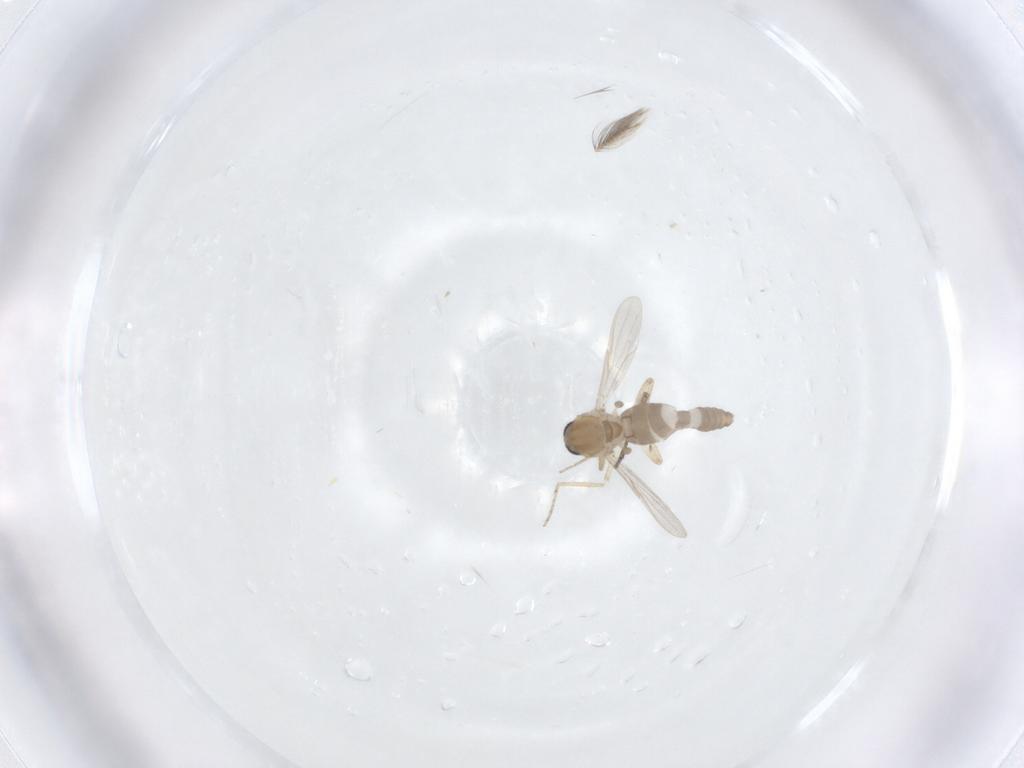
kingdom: Animalia
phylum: Arthropoda
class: Insecta
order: Diptera
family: Ceratopogonidae
